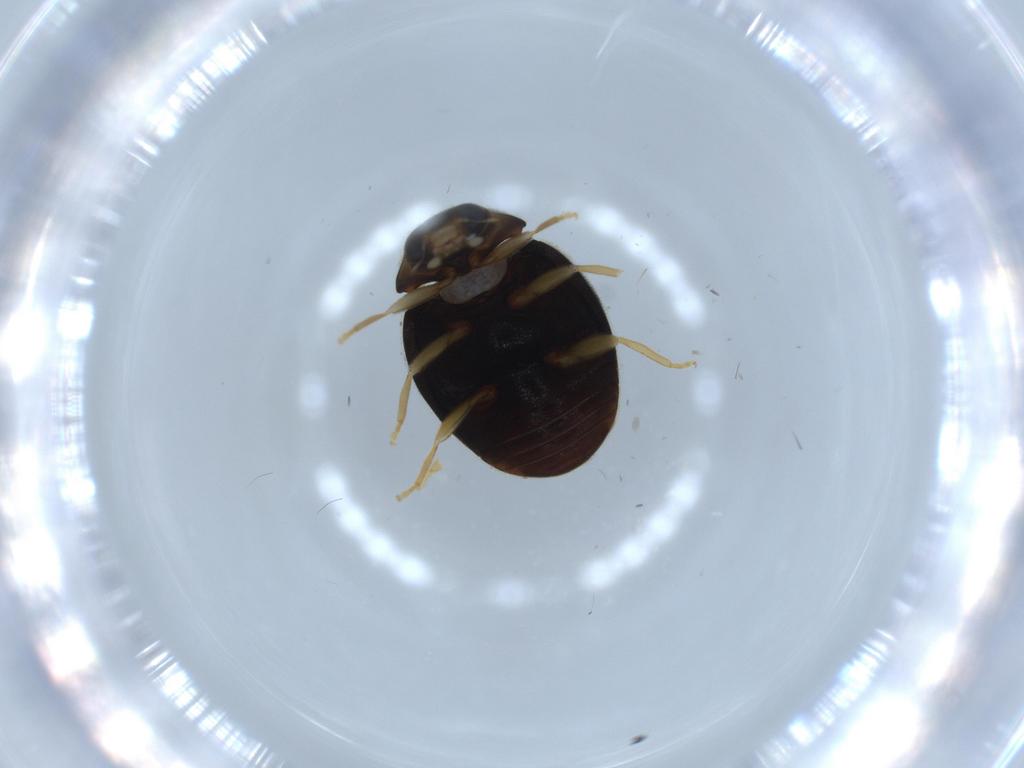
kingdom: Animalia
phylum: Arthropoda
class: Insecta
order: Coleoptera
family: Coccinellidae
